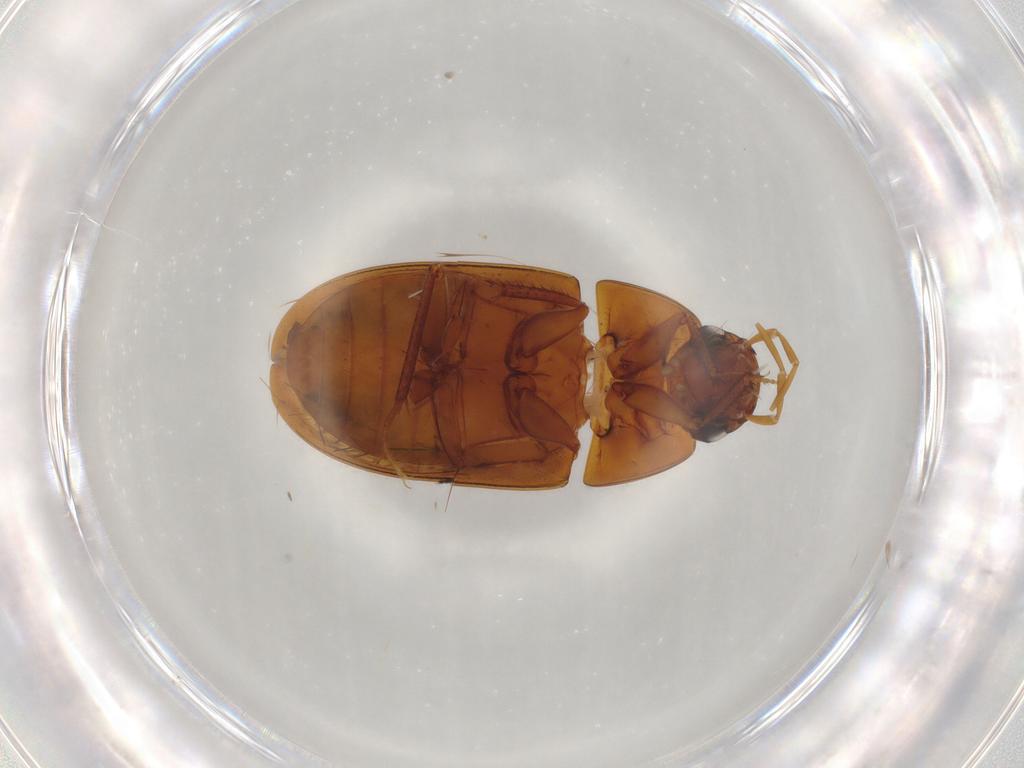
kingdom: Animalia
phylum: Arthropoda
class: Insecta
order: Coleoptera
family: Hydrophilidae
